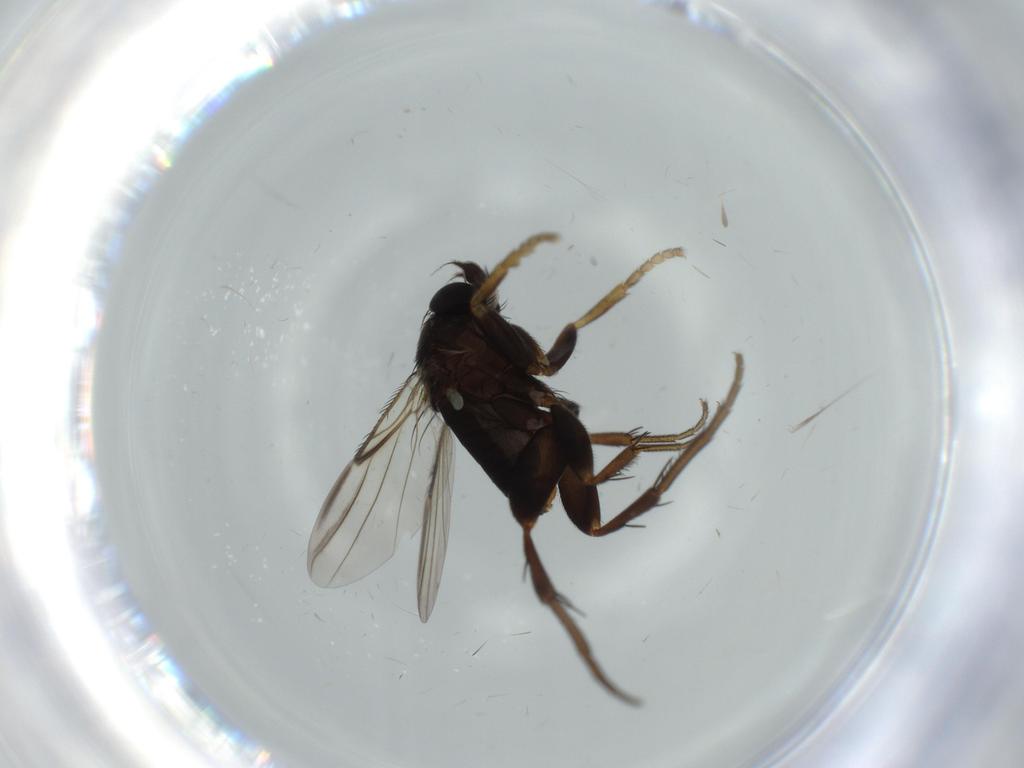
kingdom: Animalia
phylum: Arthropoda
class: Insecta
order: Diptera
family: Phoridae
